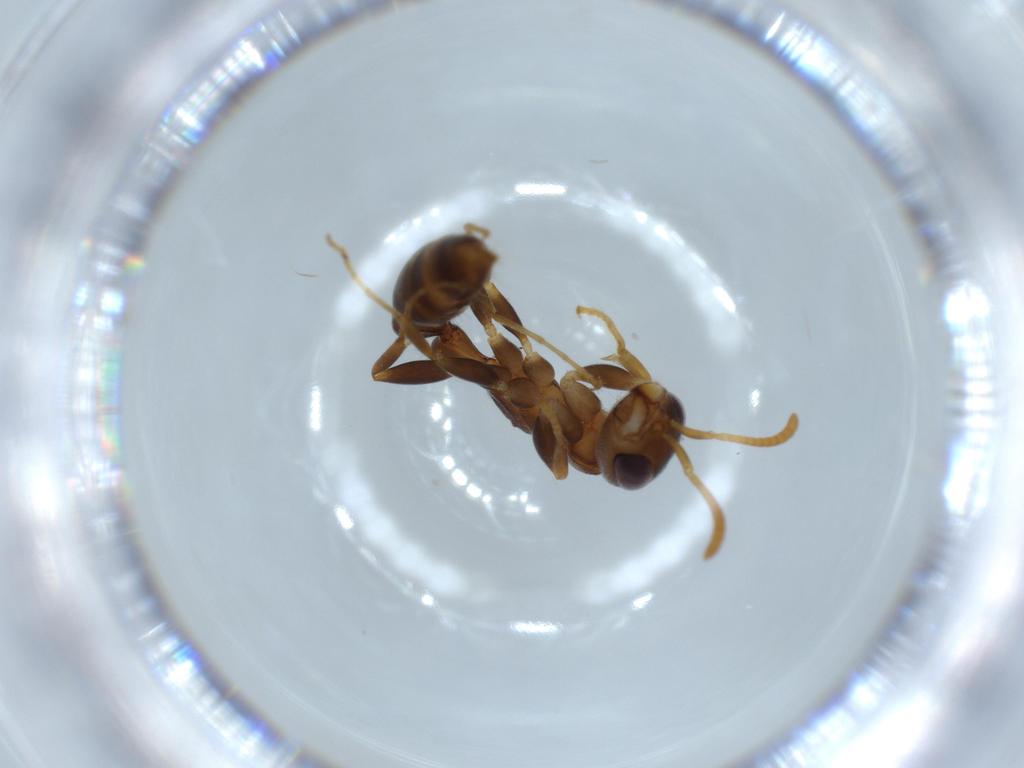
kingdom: Animalia
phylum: Arthropoda
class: Insecta
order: Hymenoptera
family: Formicidae
